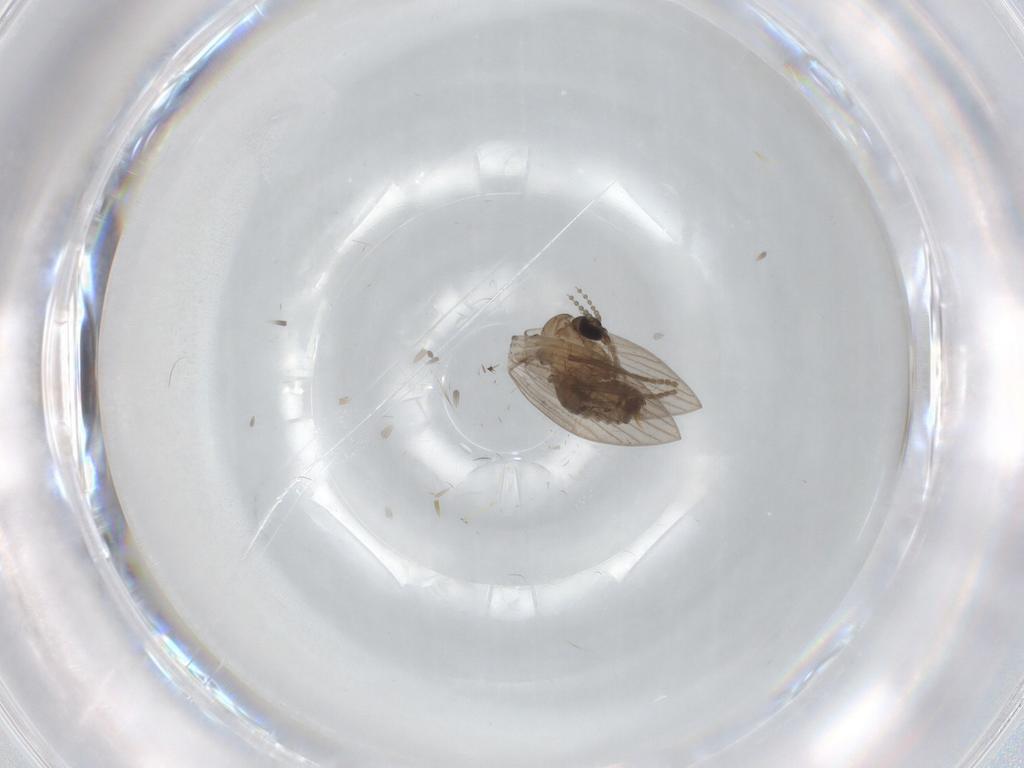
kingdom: Animalia
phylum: Arthropoda
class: Insecta
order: Diptera
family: Psychodidae
